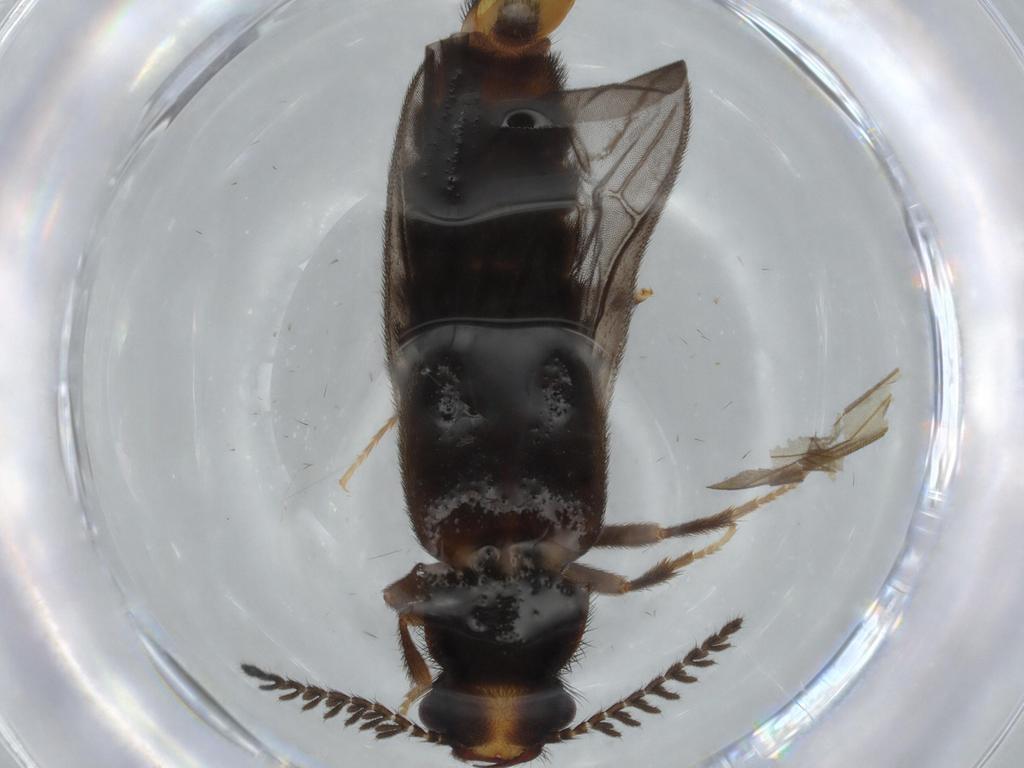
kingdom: Animalia
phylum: Arthropoda
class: Insecta
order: Coleoptera
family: Phengodidae
